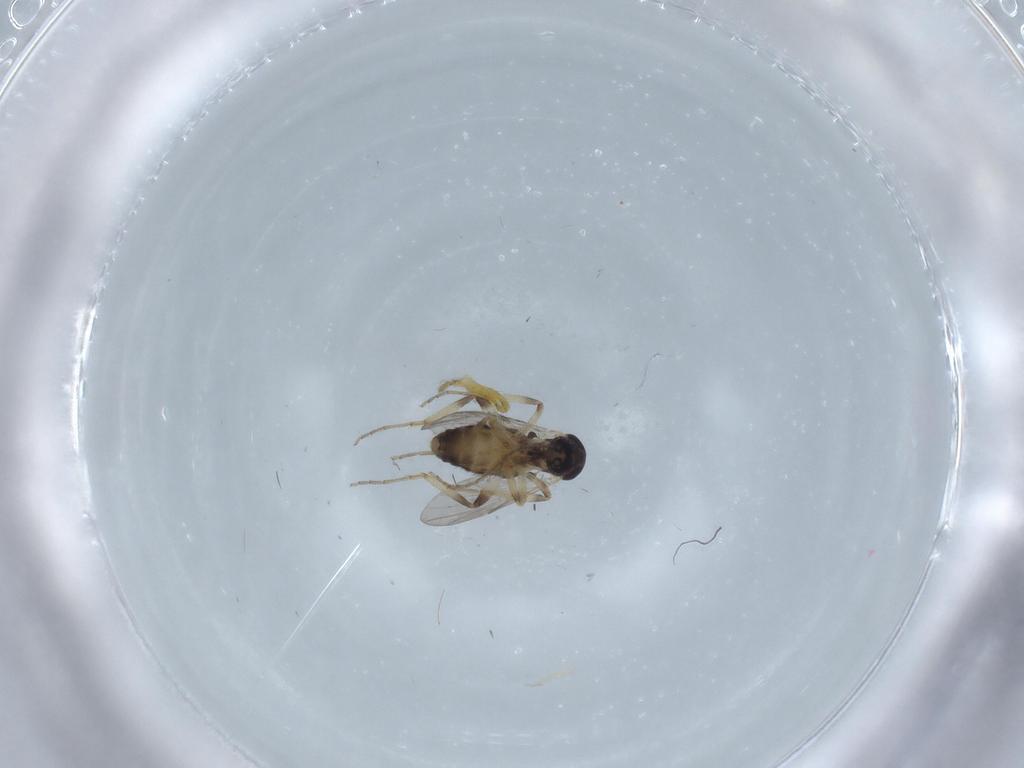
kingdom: Animalia
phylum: Arthropoda
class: Insecta
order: Diptera
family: Ceratopogonidae
